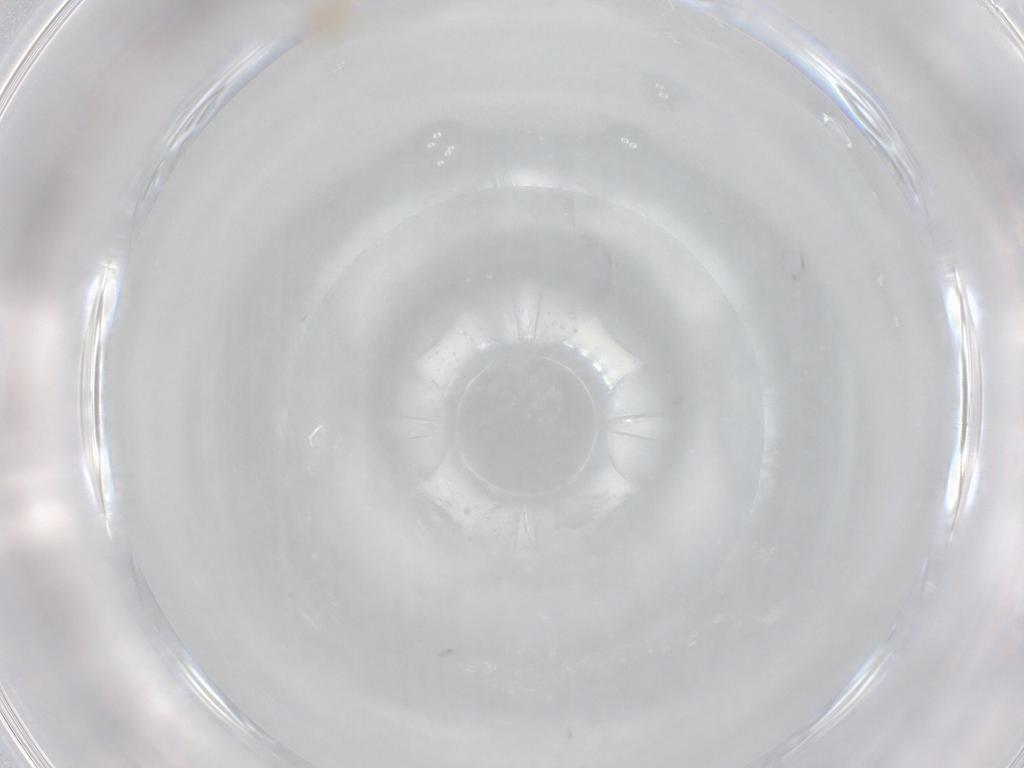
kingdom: Animalia
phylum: Arthropoda
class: Insecta
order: Diptera
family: Cecidomyiidae
